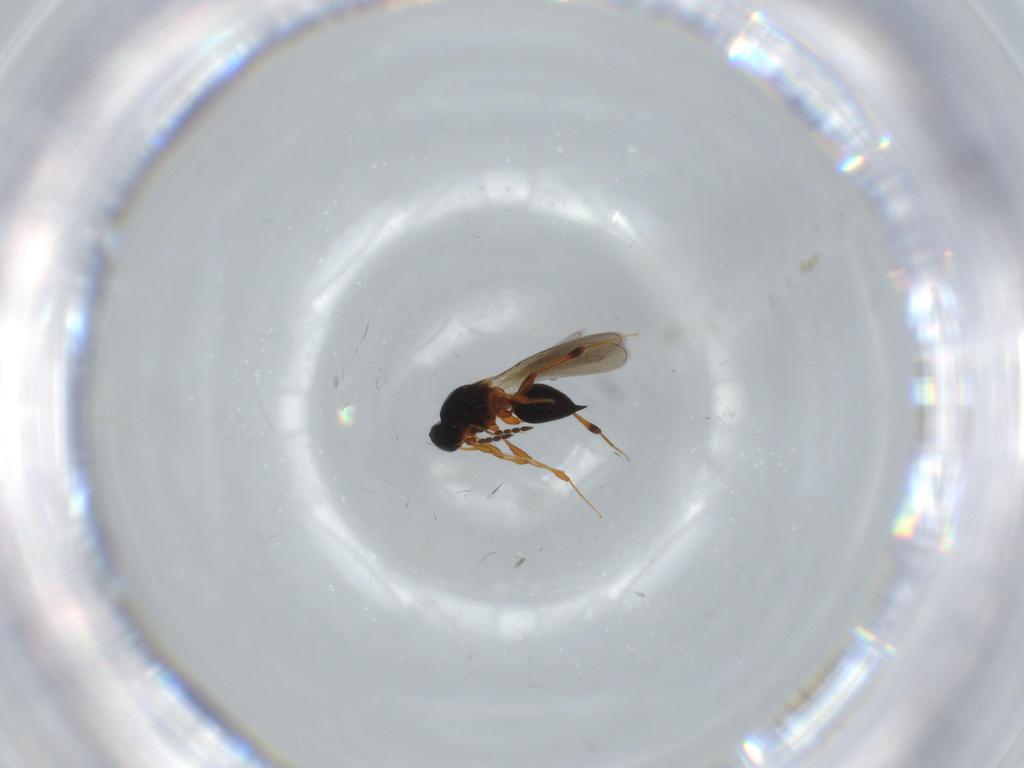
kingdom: Animalia
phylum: Arthropoda
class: Insecta
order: Hymenoptera
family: Platygastridae
